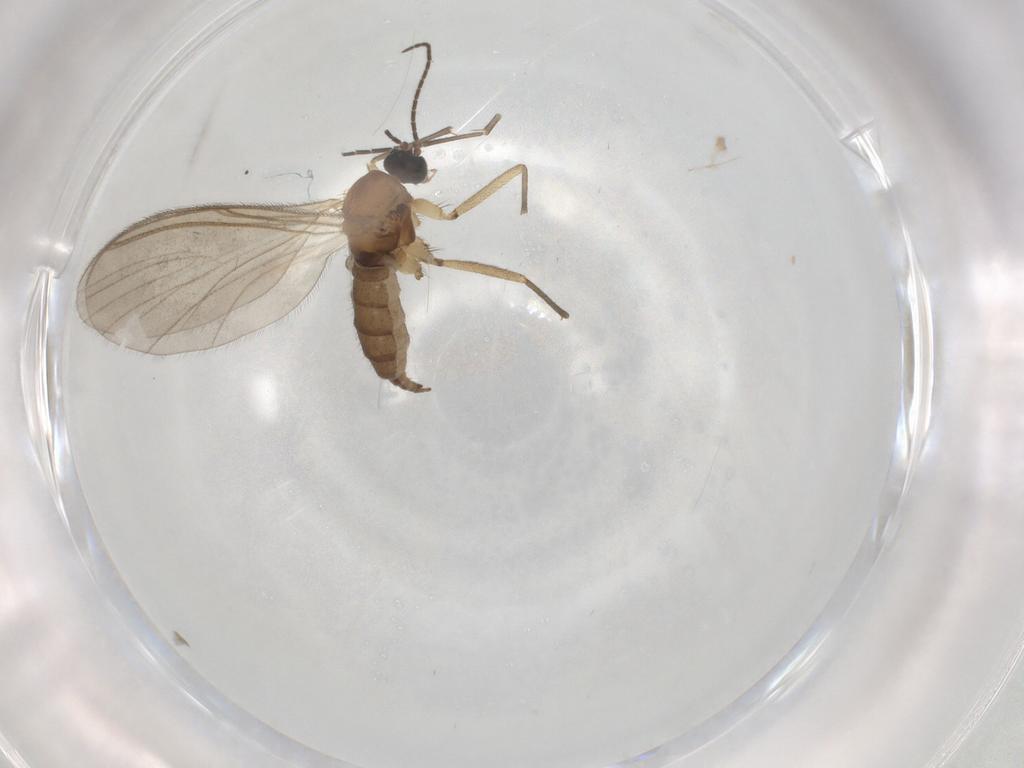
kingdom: Animalia
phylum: Arthropoda
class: Insecta
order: Diptera
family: Sciaridae
